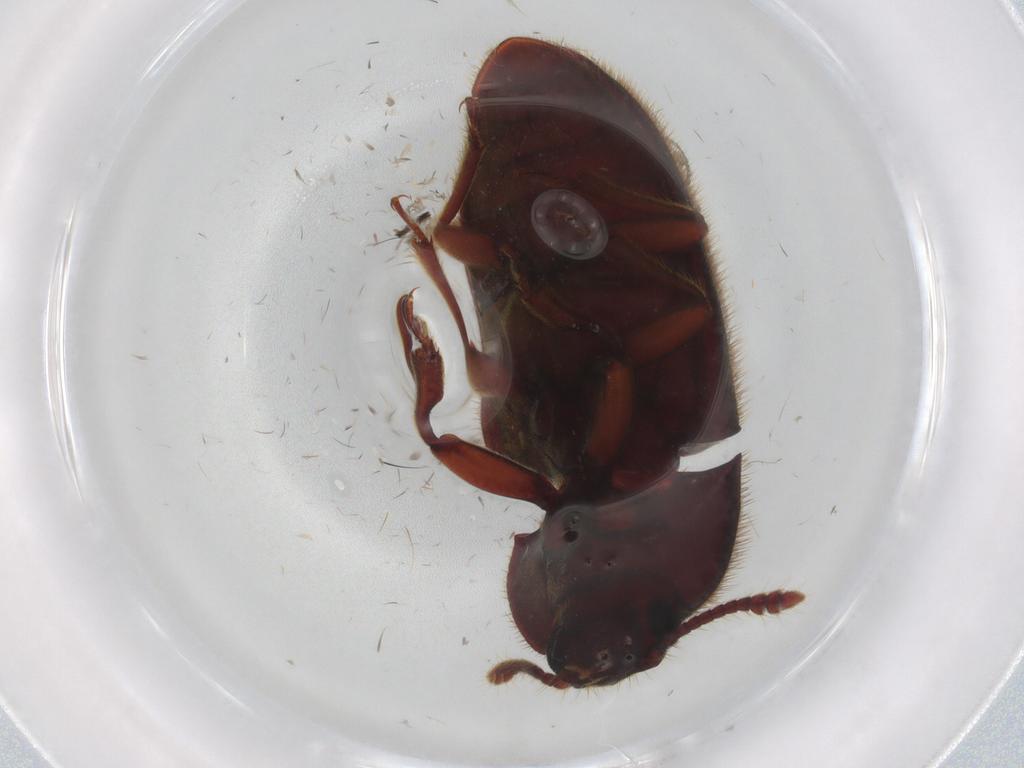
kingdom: Animalia
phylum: Arthropoda
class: Insecta
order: Coleoptera
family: Ptilodactylidae
